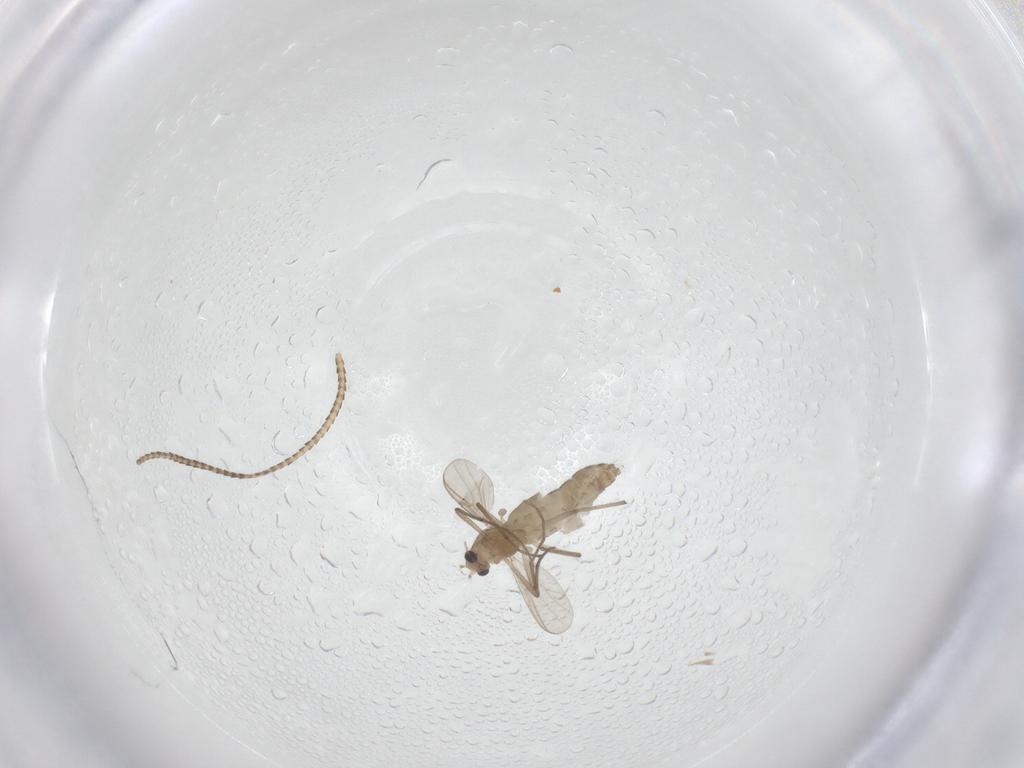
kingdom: Animalia
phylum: Arthropoda
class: Insecta
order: Diptera
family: Chironomidae
